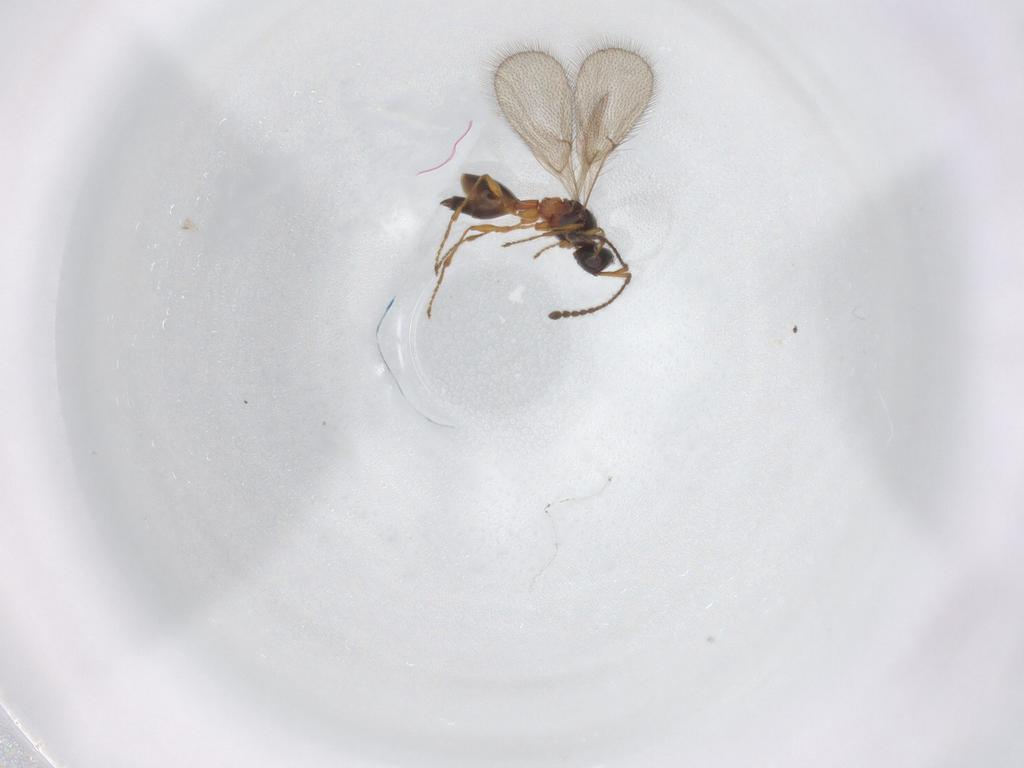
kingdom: Animalia
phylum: Arthropoda
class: Insecta
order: Hymenoptera
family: Diapriidae
